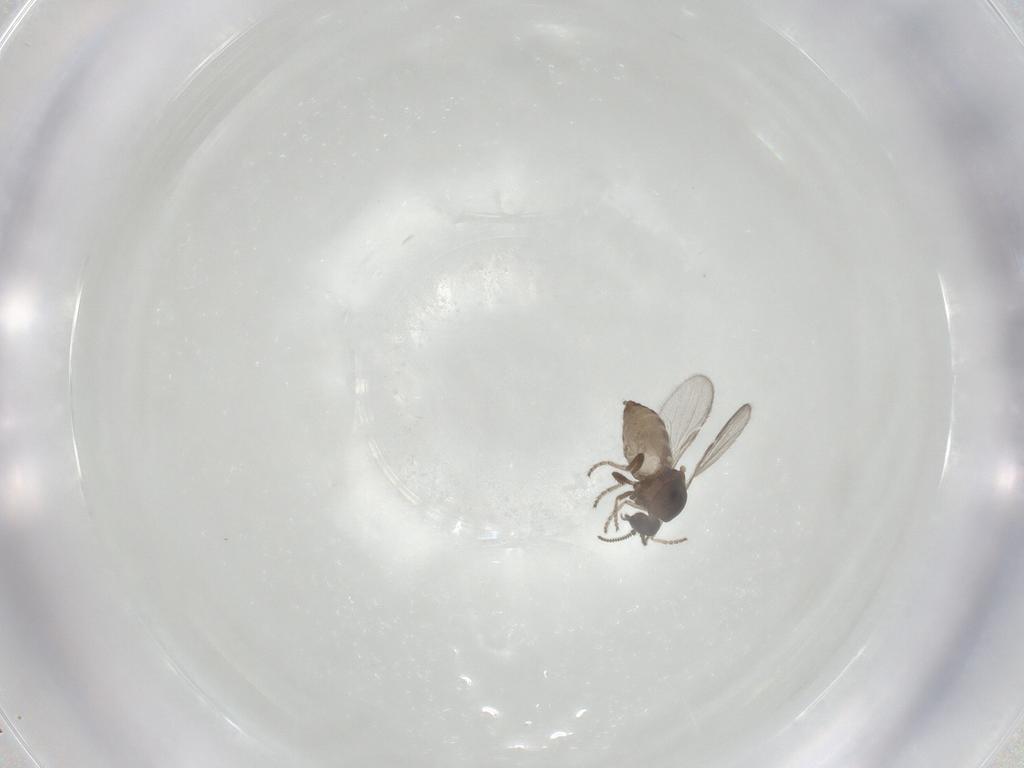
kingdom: Animalia
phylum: Arthropoda
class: Insecta
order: Diptera
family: Ceratopogonidae
